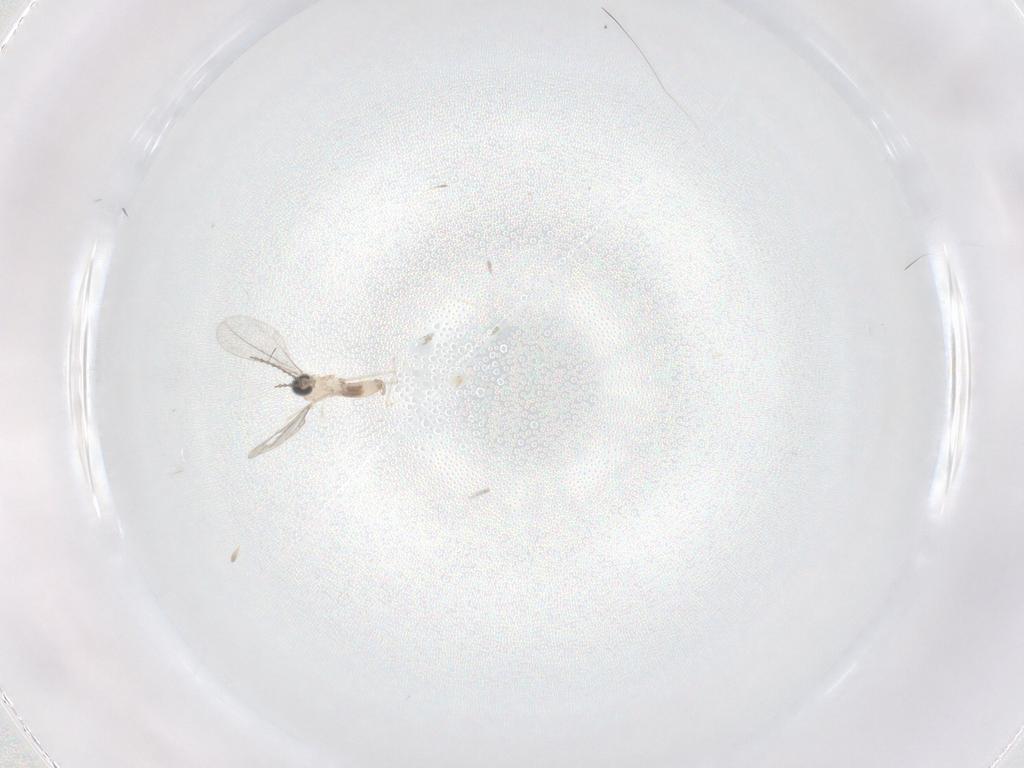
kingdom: Animalia
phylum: Arthropoda
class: Insecta
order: Diptera
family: Cecidomyiidae
